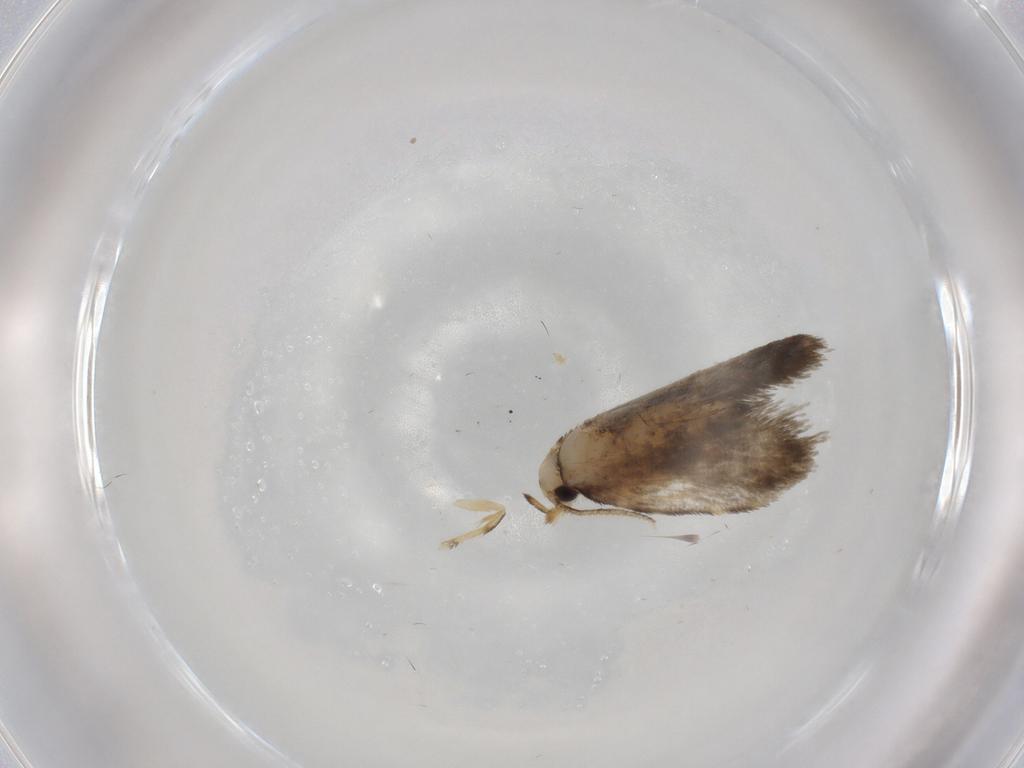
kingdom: Animalia
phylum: Arthropoda
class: Insecta
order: Lepidoptera
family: Psychidae
